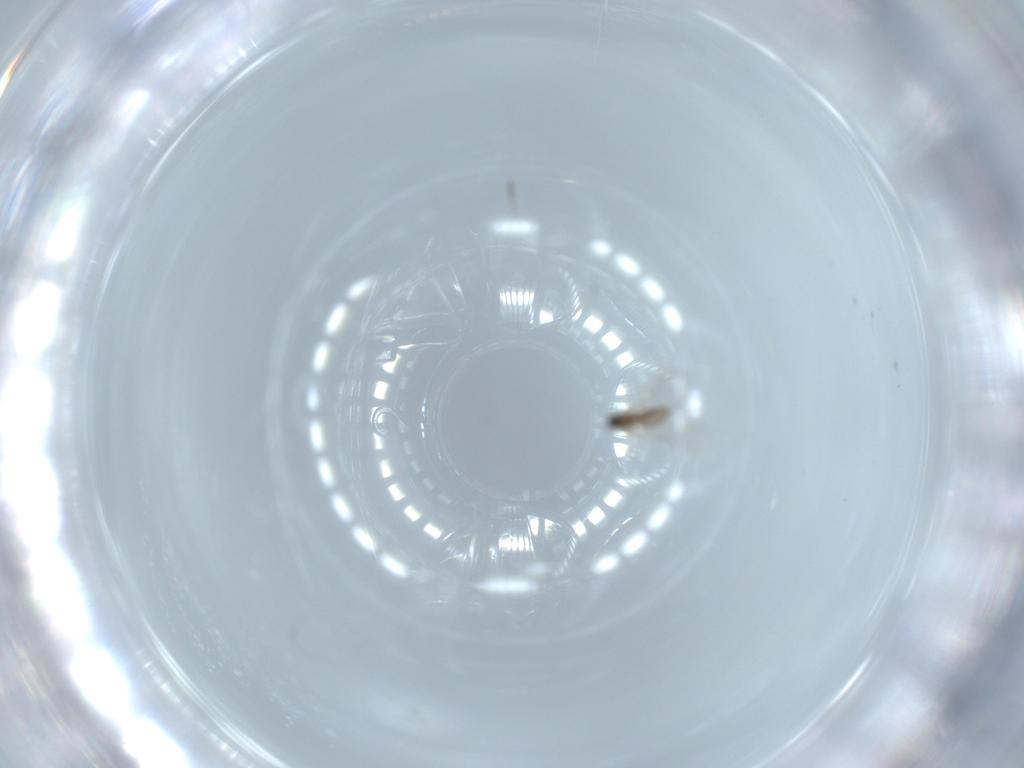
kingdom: Animalia
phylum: Arthropoda
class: Insecta
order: Diptera
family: Cecidomyiidae
